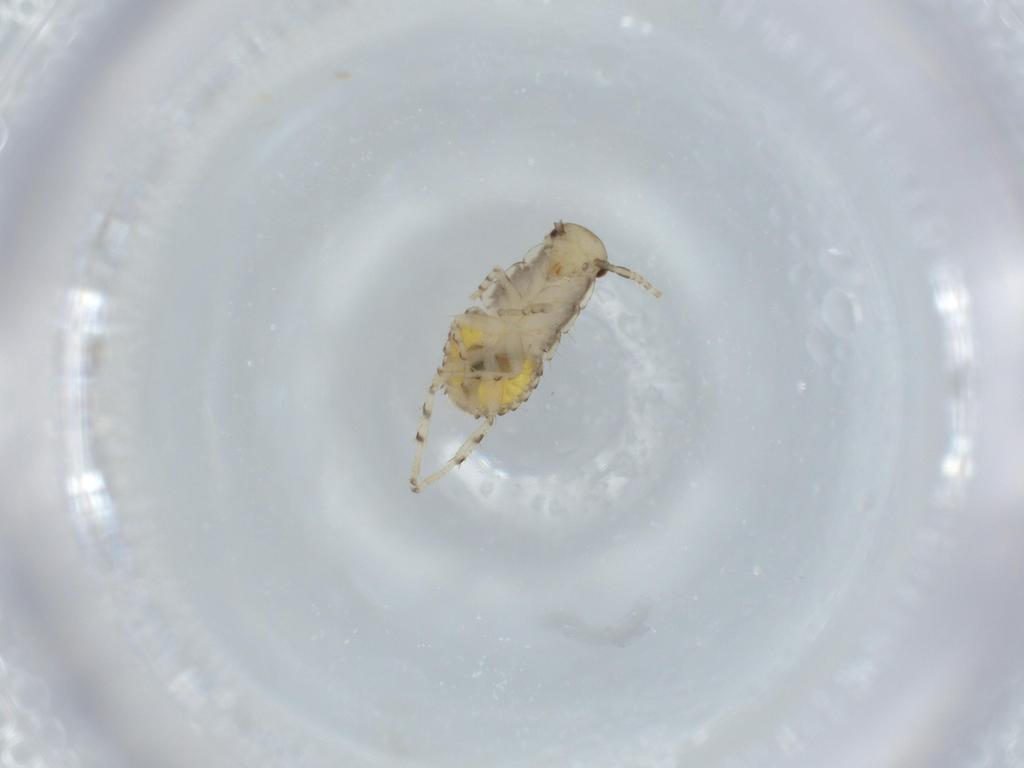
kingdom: Animalia
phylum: Arthropoda
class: Insecta
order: Blattodea
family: Ectobiidae
